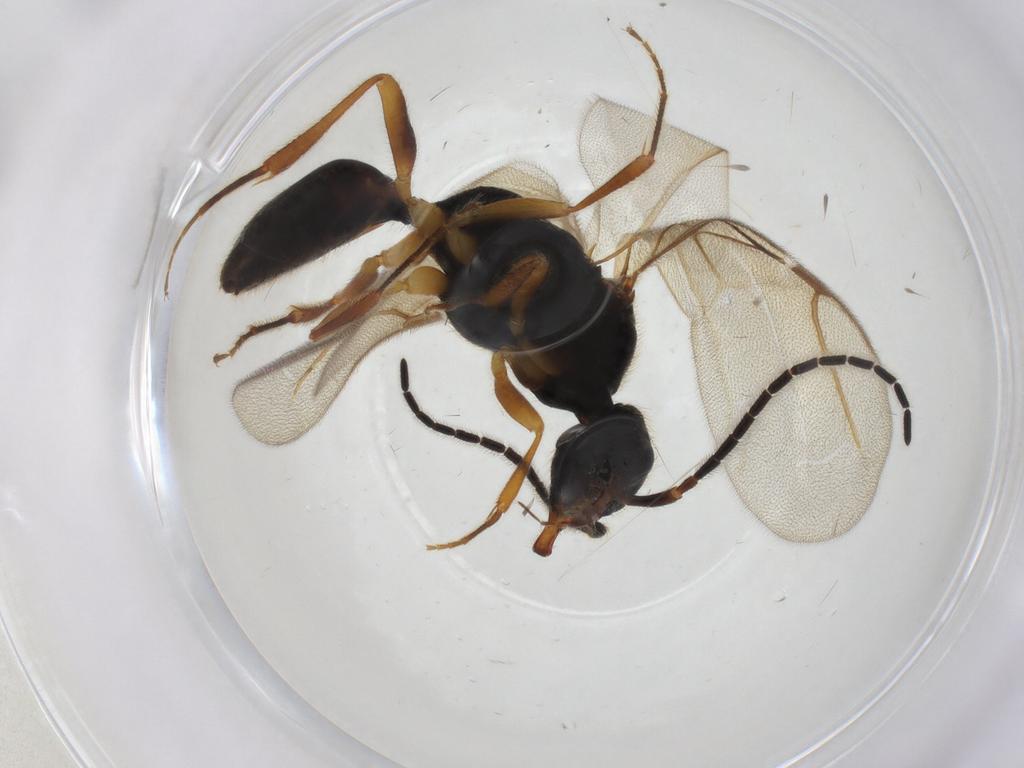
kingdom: Animalia
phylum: Arthropoda
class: Insecta
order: Hymenoptera
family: Bethylidae
